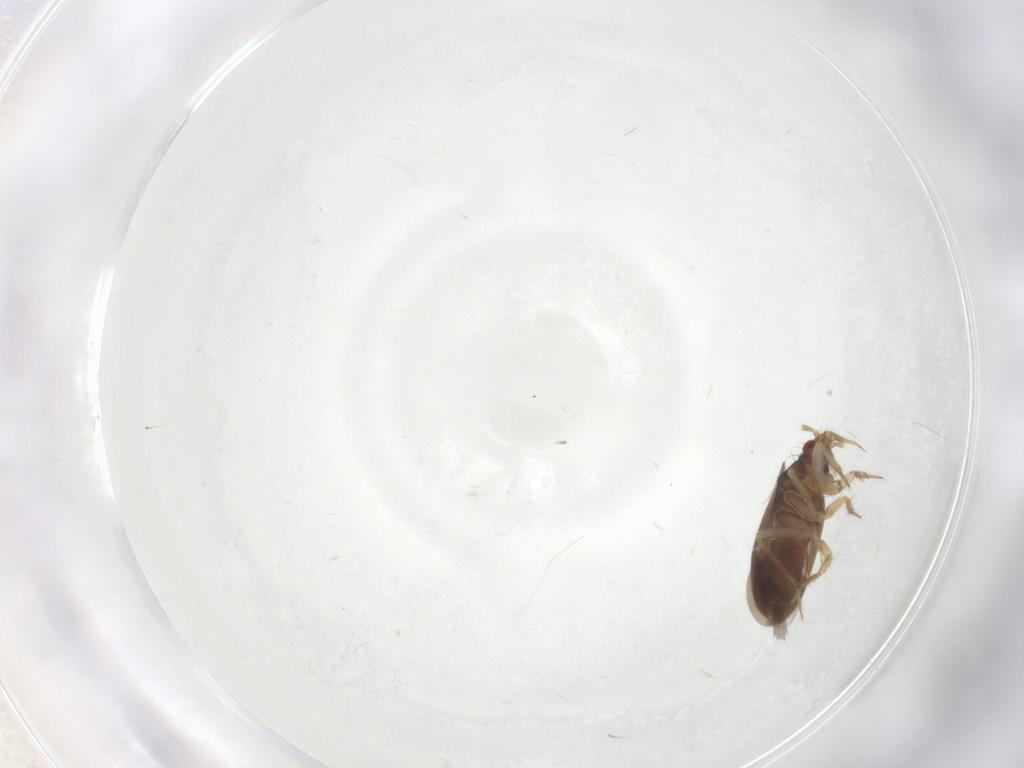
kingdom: Animalia
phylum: Arthropoda
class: Insecta
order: Hemiptera
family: Ceratocombidae
